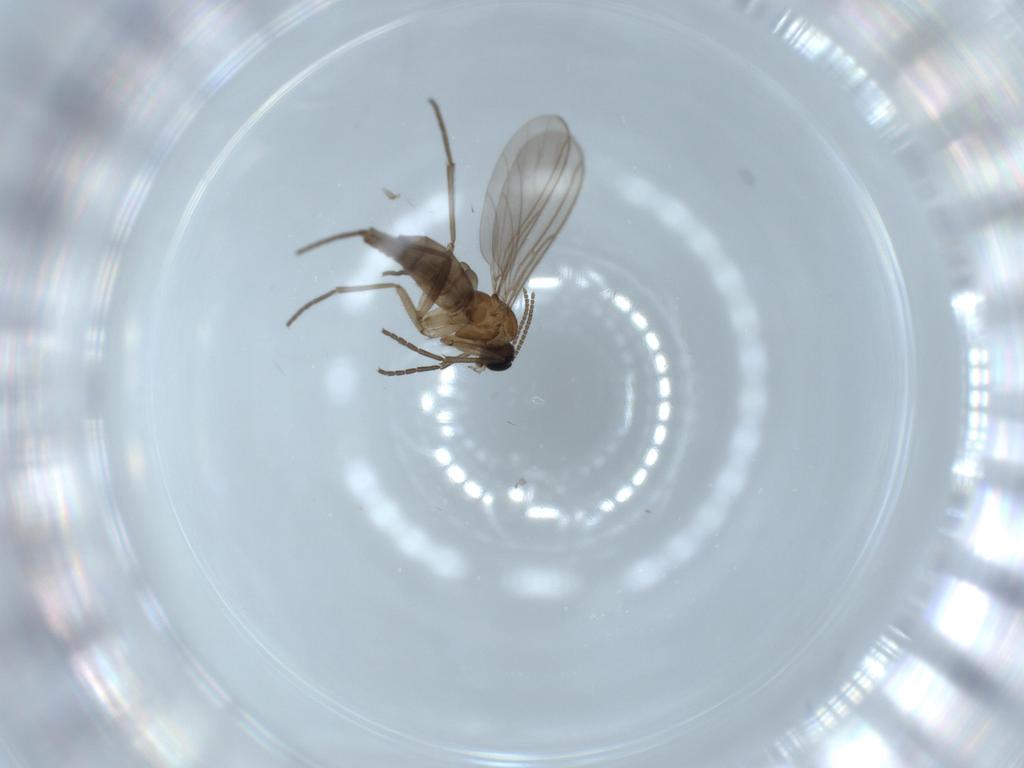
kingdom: Animalia
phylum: Arthropoda
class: Insecta
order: Diptera
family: Sciaridae
